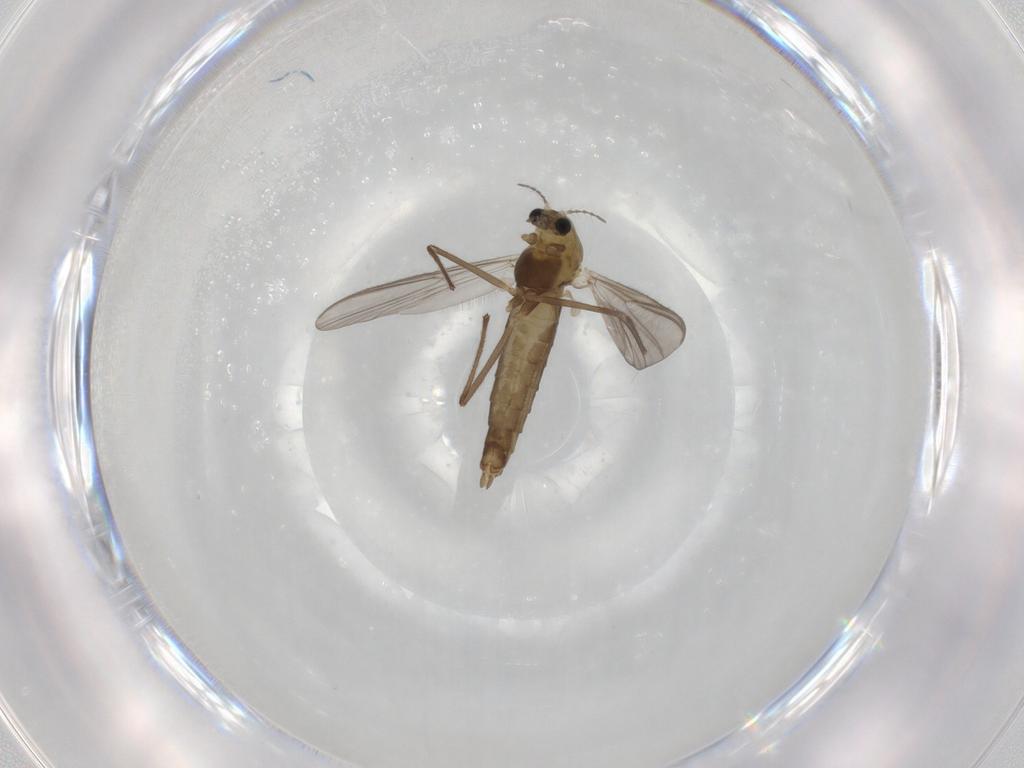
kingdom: Animalia
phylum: Arthropoda
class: Insecta
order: Diptera
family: Chironomidae
